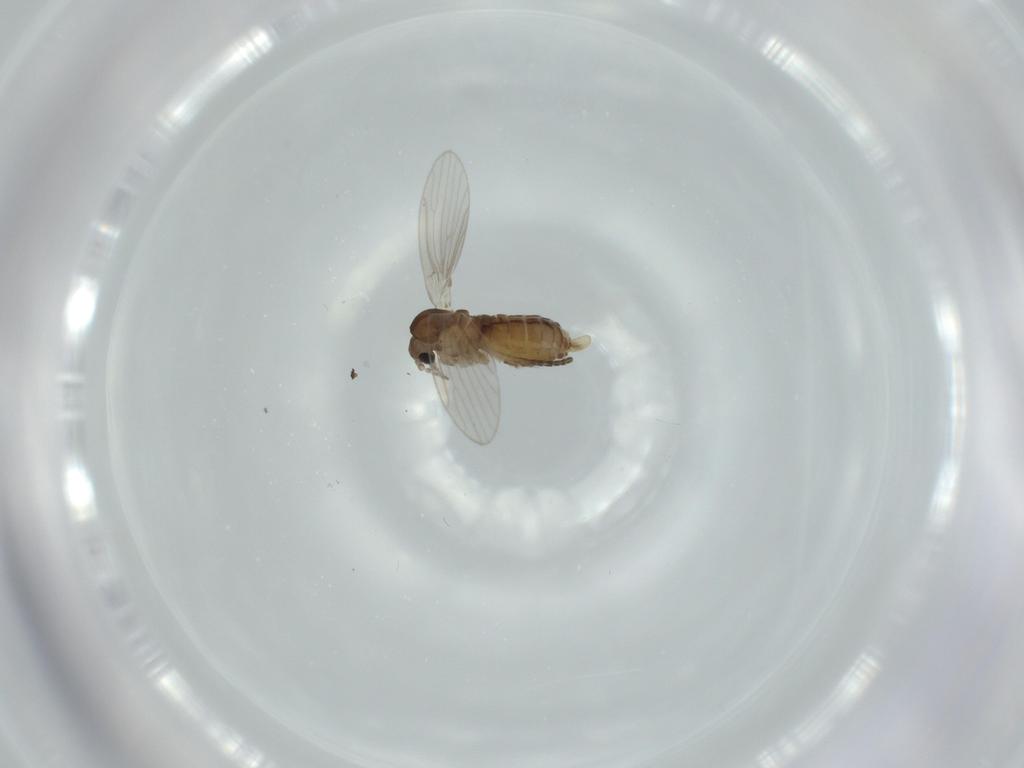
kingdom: Animalia
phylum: Arthropoda
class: Insecta
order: Diptera
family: Psychodidae
